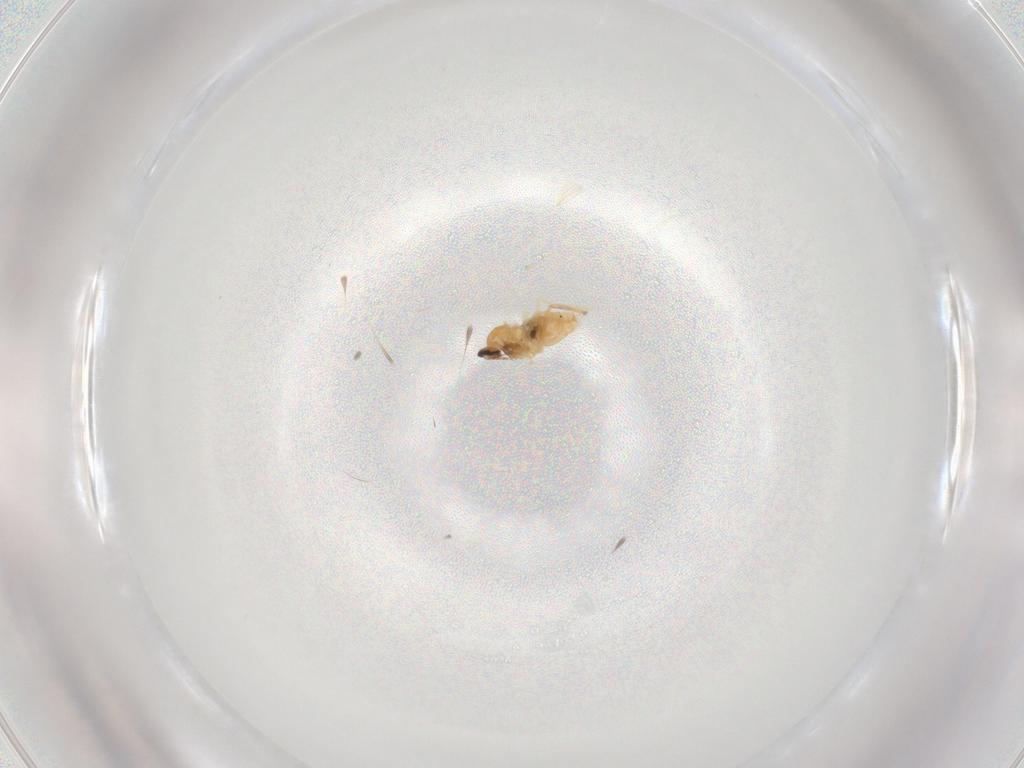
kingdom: Animalia
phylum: Arthropoda
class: Insecta
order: Diptera
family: Cecidomyiidae
